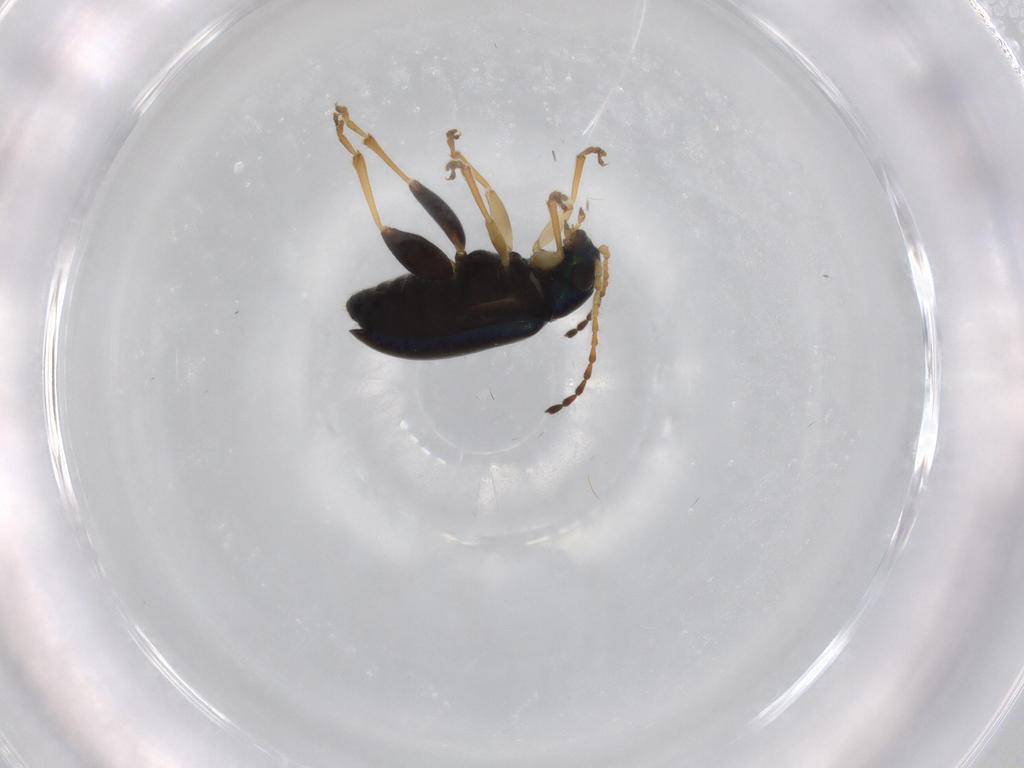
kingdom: Animalia
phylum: Arthropoda
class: Insecta
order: Coleoptera
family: Chrysomelidae
